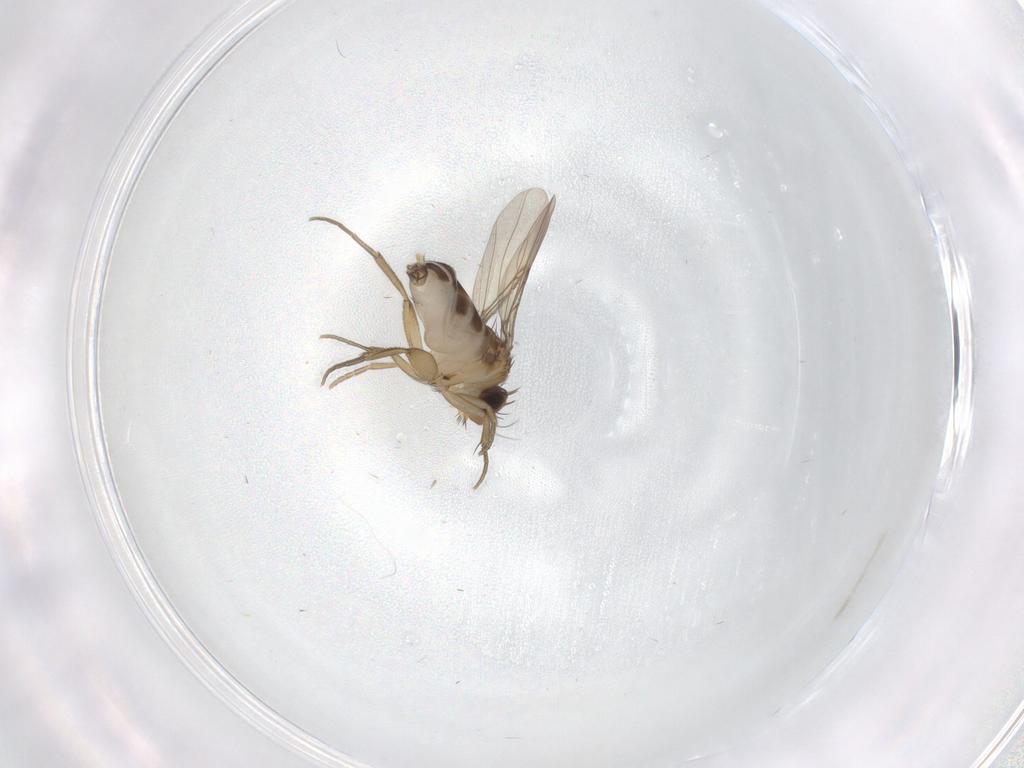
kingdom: Animalia
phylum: Arthropoda
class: Insecta
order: Diptera
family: Phoridae
